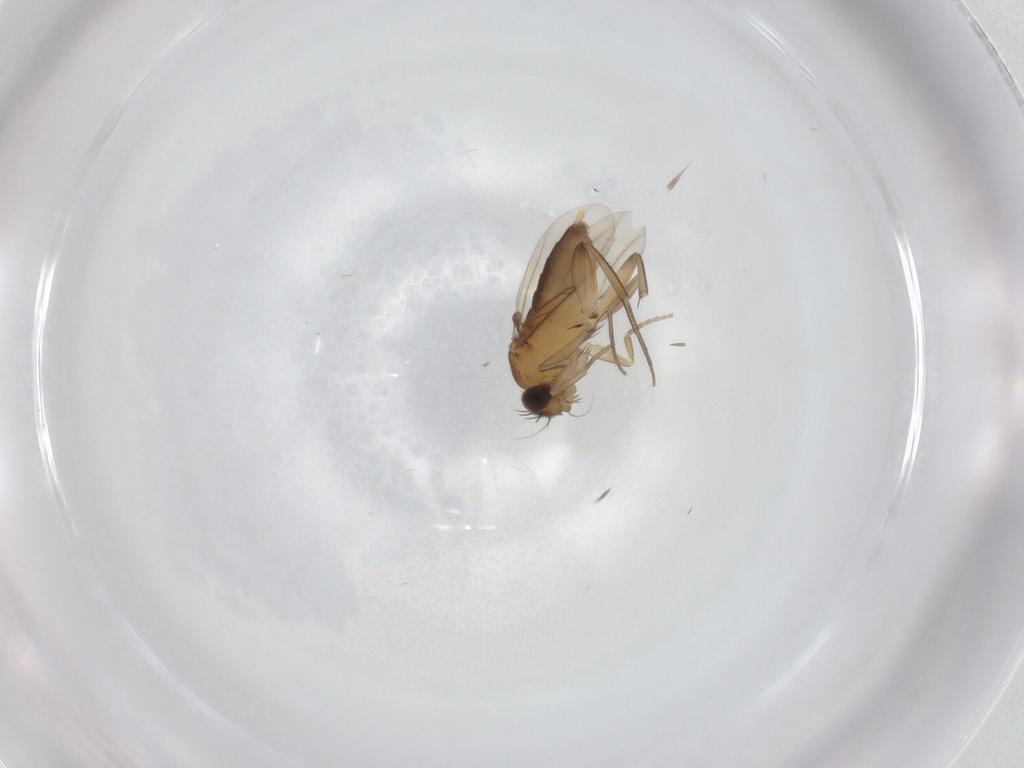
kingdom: Animalia
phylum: Arthropoda
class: Insecta
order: Diptera
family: Phoridae
